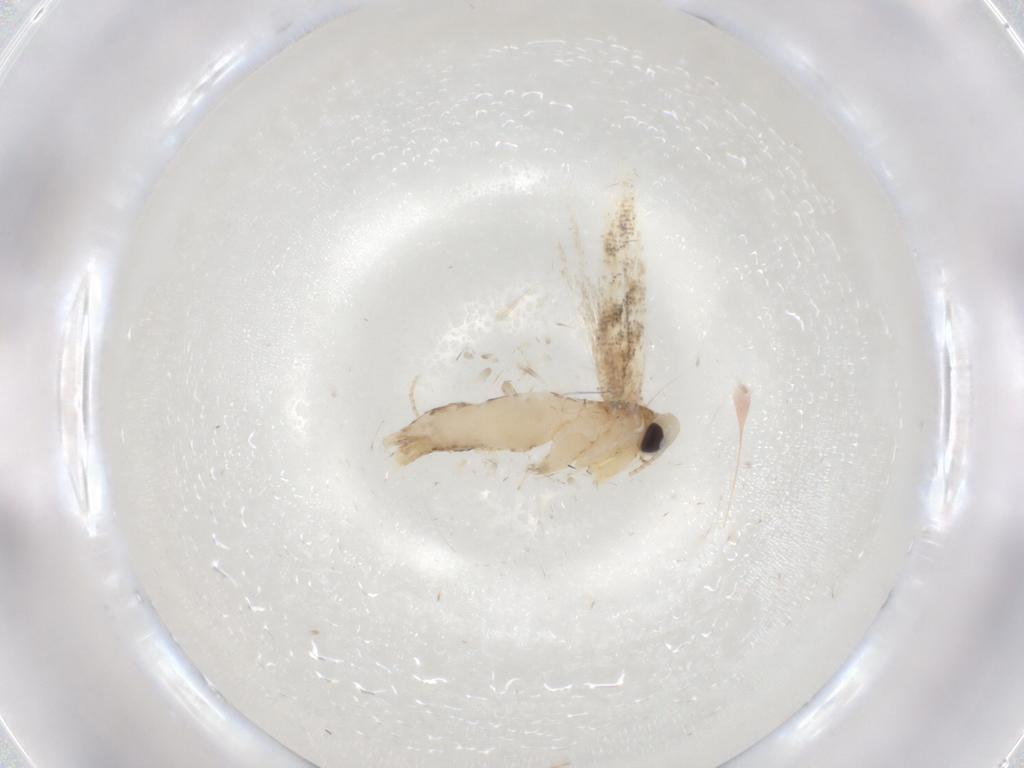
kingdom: Animalia
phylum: Arthropoda
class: Insecta
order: Lepidoptera
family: Gracillariidae
